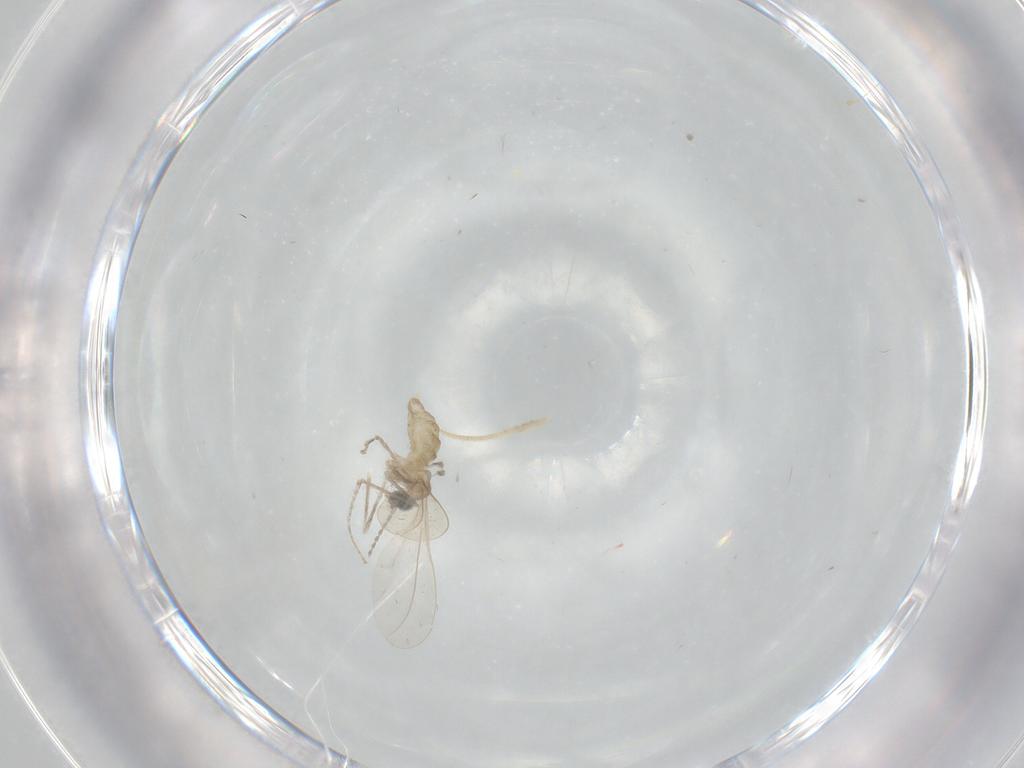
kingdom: Animalia
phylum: Arthropoda
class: Insecta
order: Diptera
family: Cecidomyiidae
